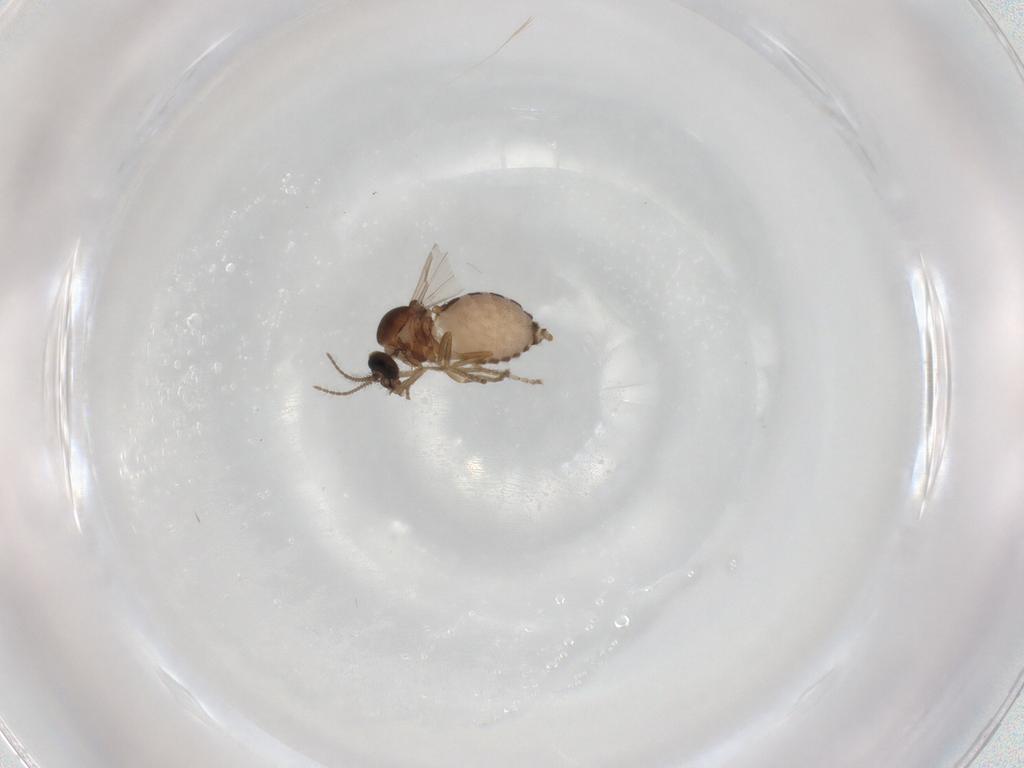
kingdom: Animalia
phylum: Arthropoda
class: Insecta
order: Diptera
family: Ceratopogonidae
